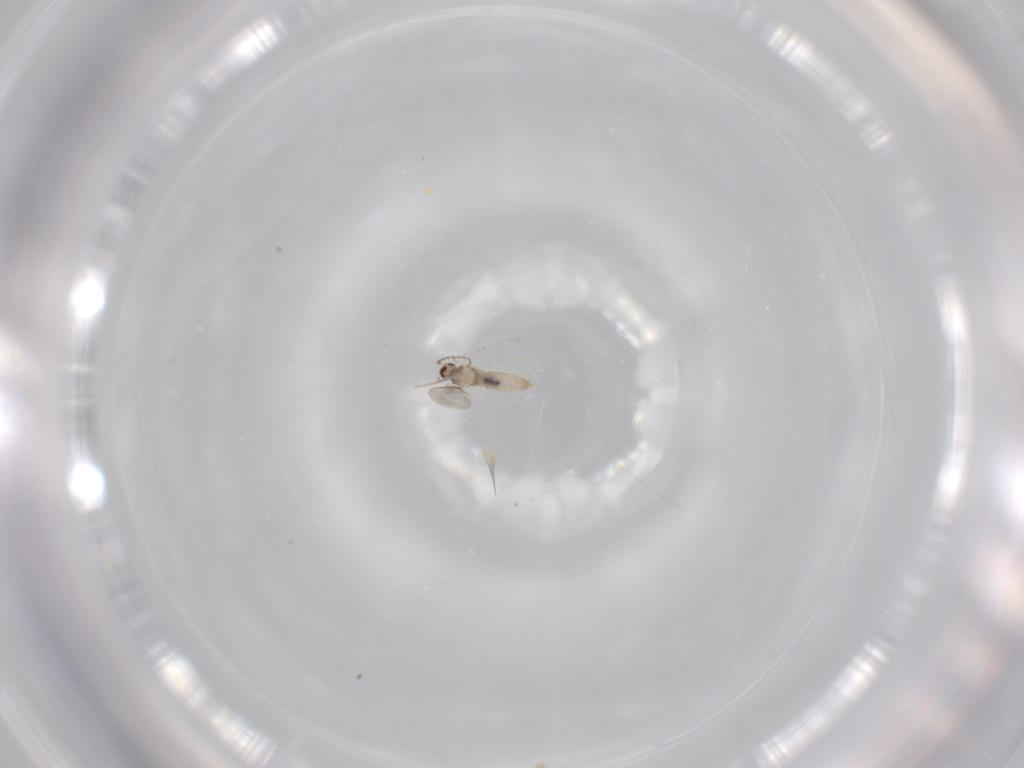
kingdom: Animalia
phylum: Arthropoda
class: Insecta
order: Diptera
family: Cecidomyiidae
